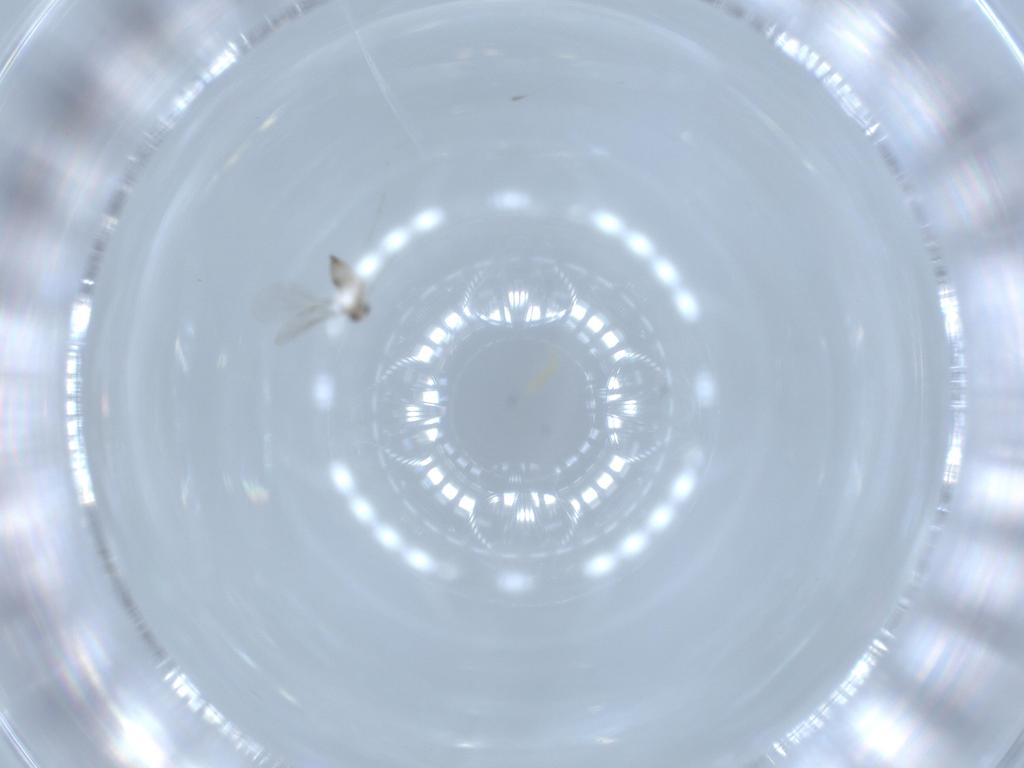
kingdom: Animalia
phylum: Arthropoda
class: Insecta
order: Diptera
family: Cecidomyiidae
